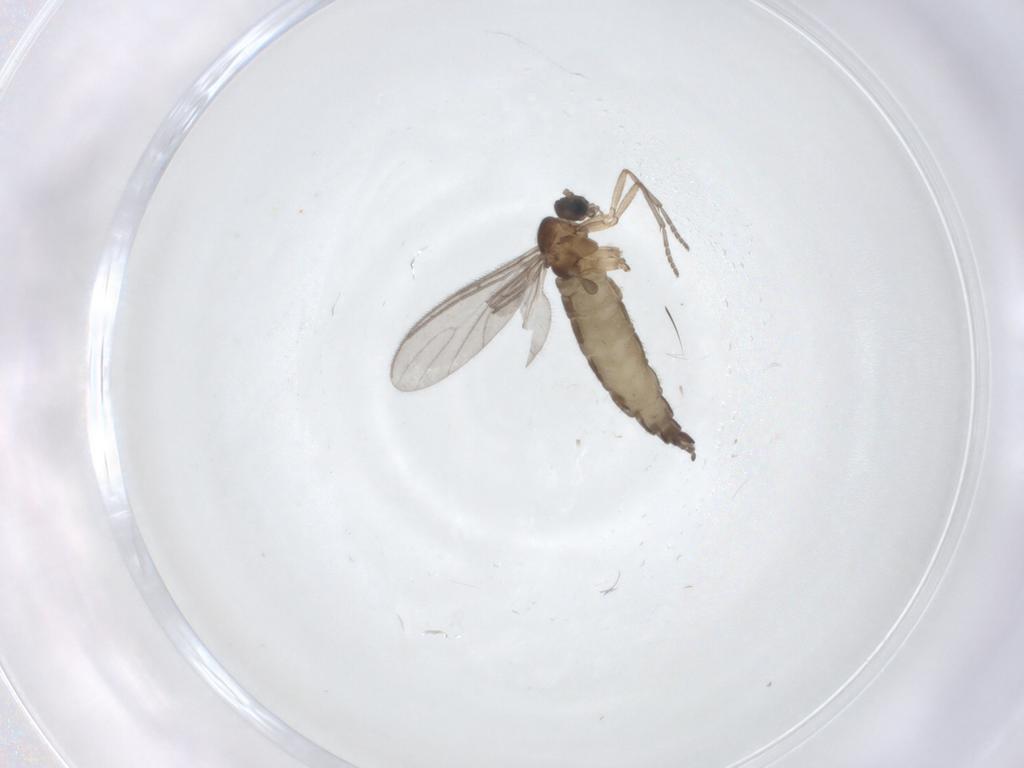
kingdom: Animalia
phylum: Arthropoda
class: Insecta
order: Diptera
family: Sciaridae
